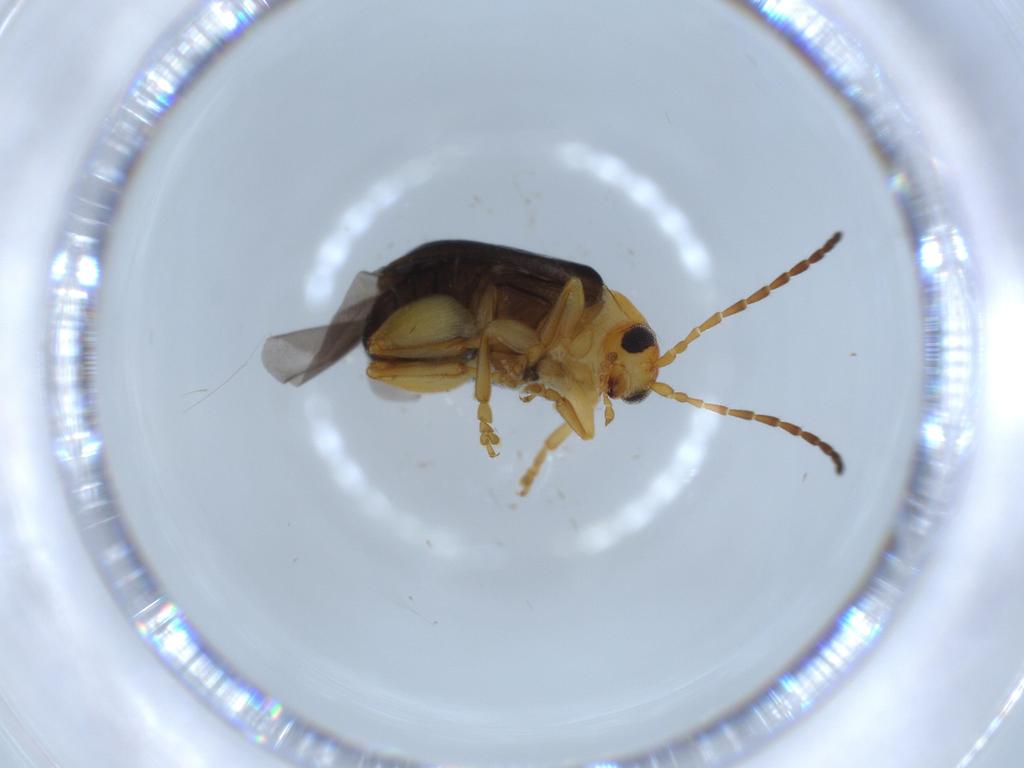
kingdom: Animalia
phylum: Arthropoda
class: Insecta
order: Coleoptera
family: Chrysomelidae
